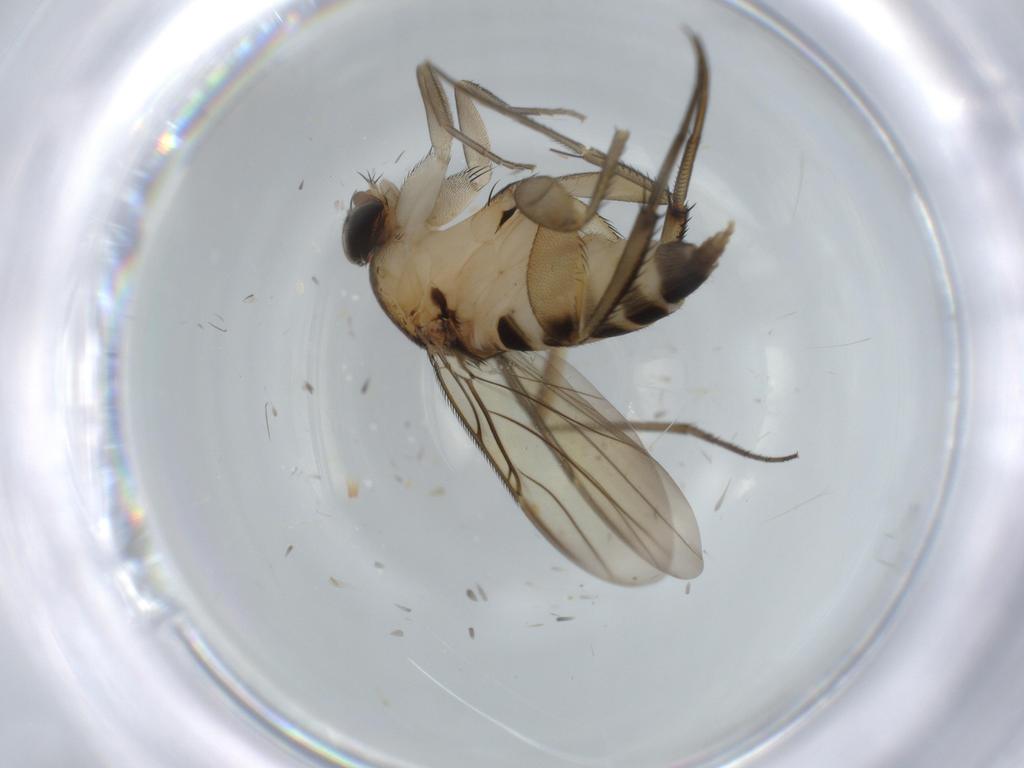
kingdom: Animalia
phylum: Arthropoda
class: Insecta
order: Diptera
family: Dolichopodidae
